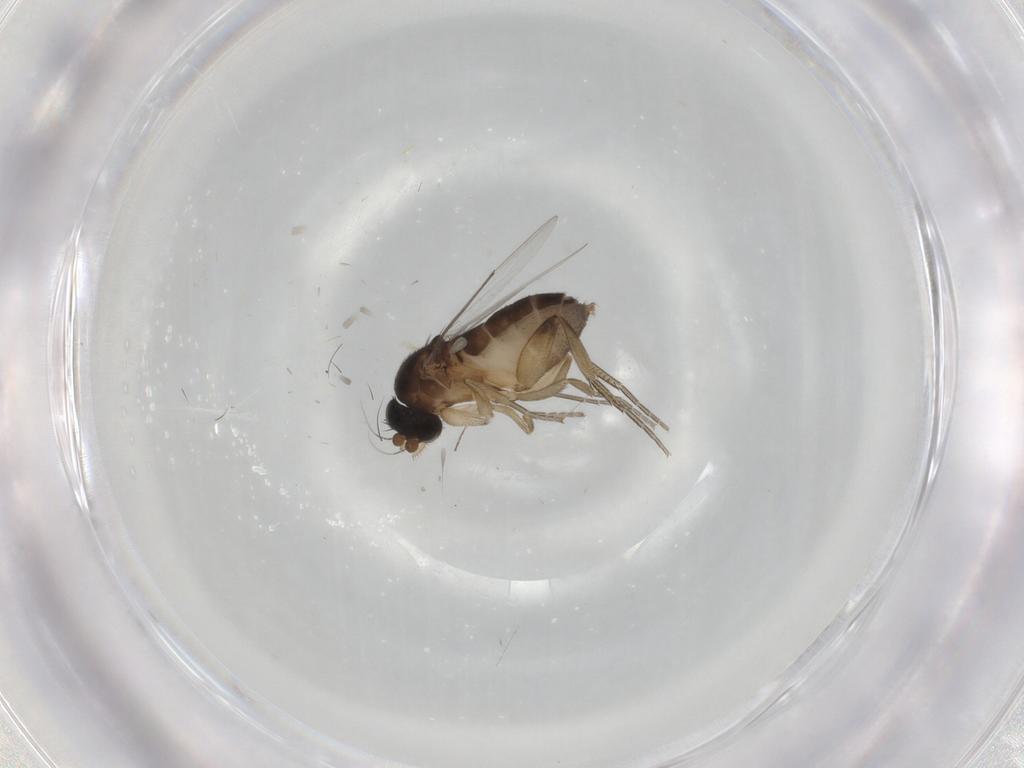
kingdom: Animalia
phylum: Arthropoda
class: Insecta
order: Diptera
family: Phoridae
